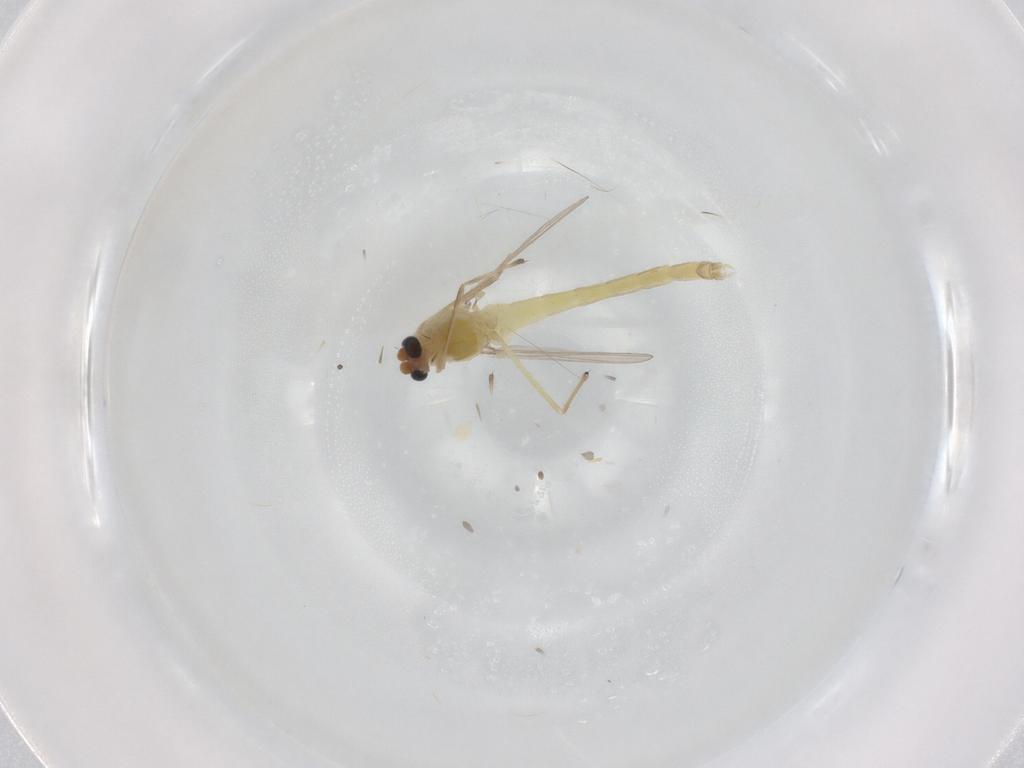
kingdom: Animalia
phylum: Arthropoda
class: Insecta
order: Diptera
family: Chironomidae
